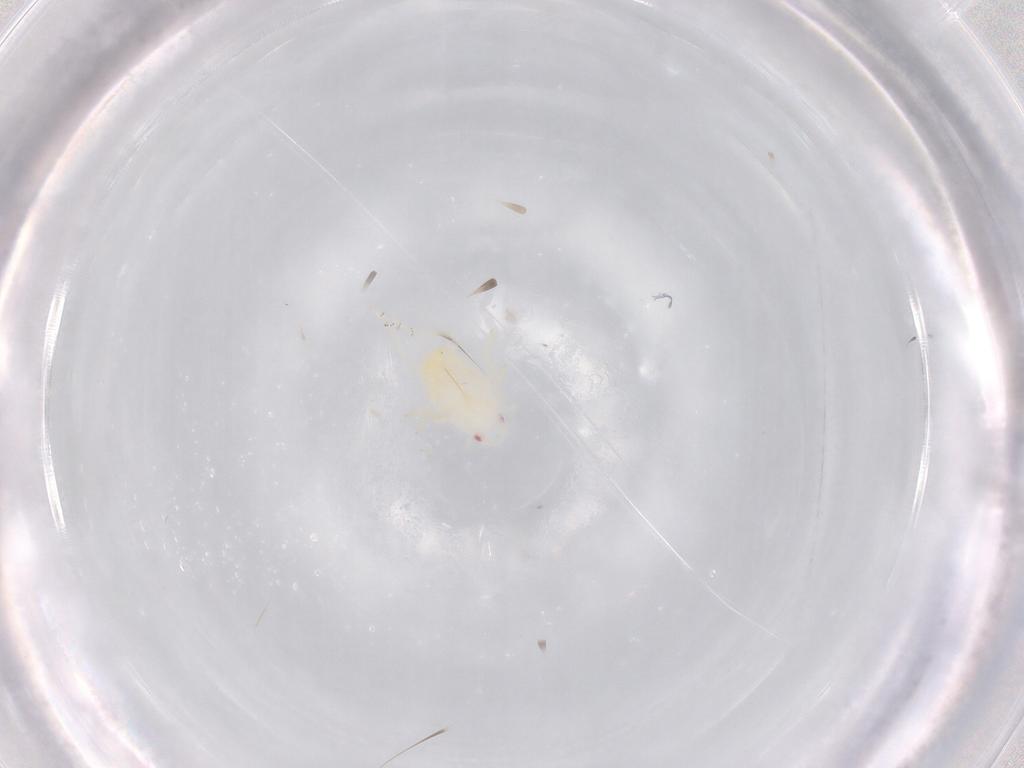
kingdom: Animalia
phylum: Arthropoda
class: Insecta
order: Hemiptera
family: Flatidae
